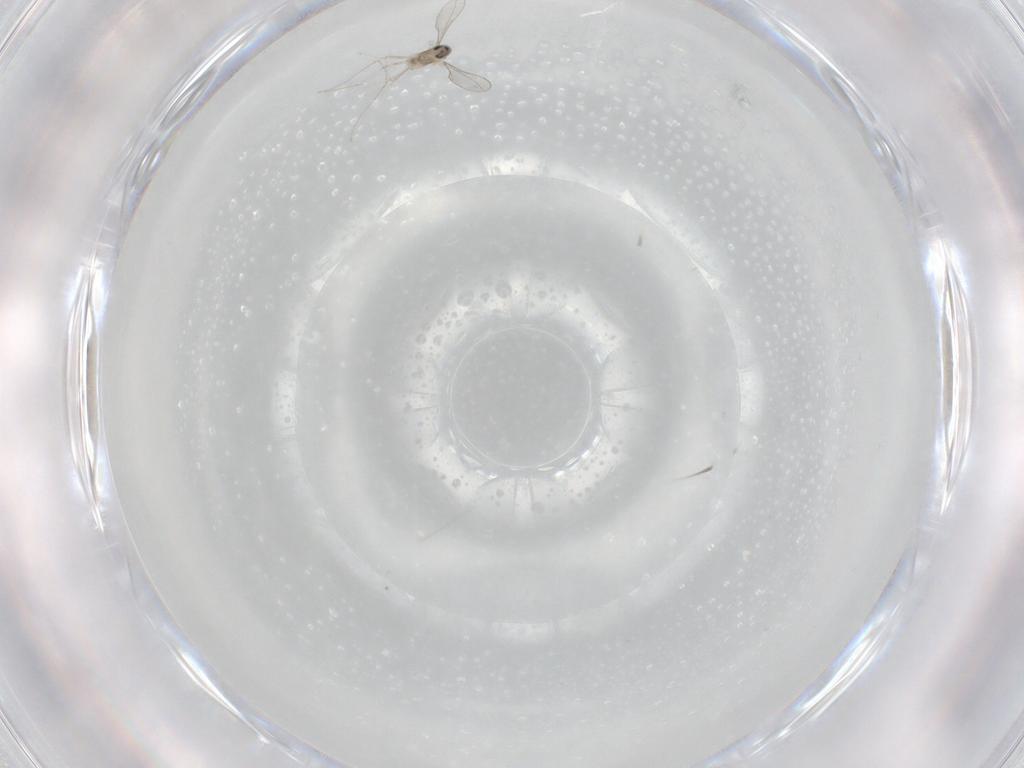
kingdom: Animalia
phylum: Arthropoda
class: Insecta
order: Diptera
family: Cecidomyiidae
